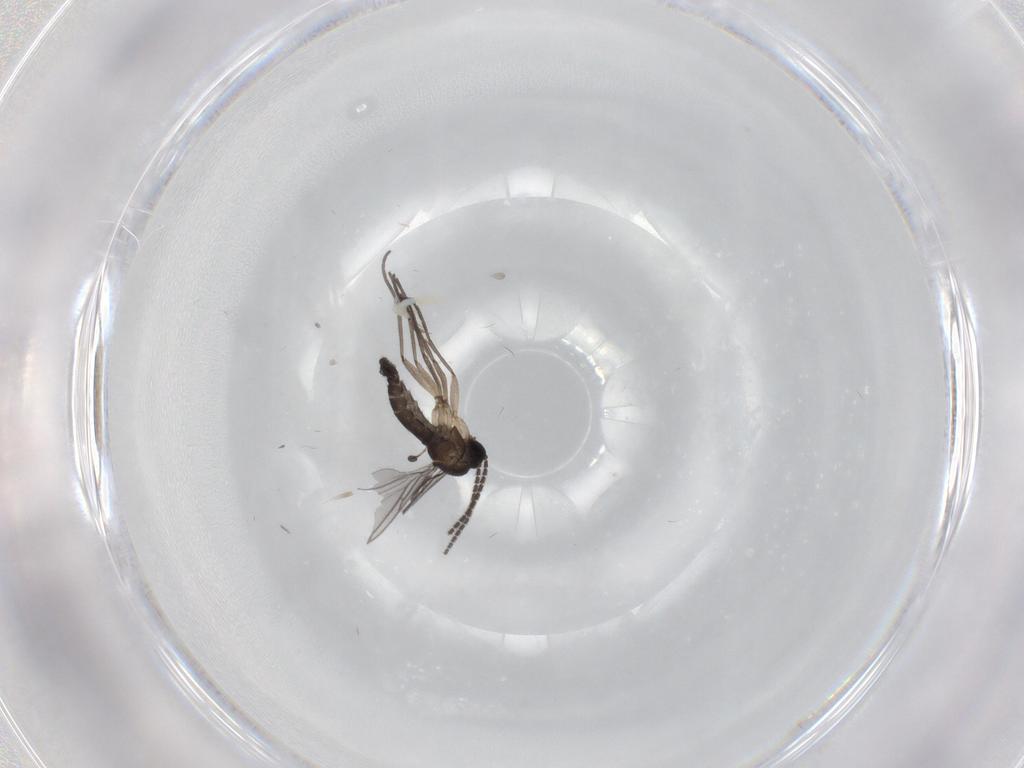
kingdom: Animalia
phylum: Arthropoda
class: Insecta
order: Diptera
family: Sciaridae
